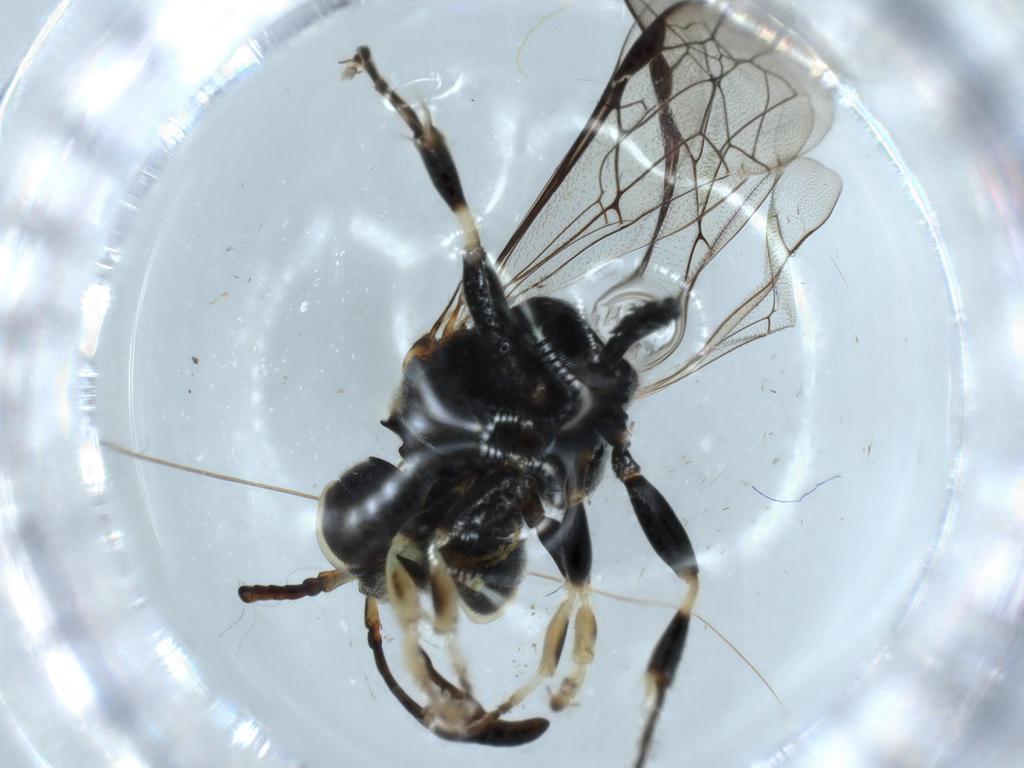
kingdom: Animalia
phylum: Arthropoda
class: Insecta
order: Hymenoptera
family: Crabronidae
